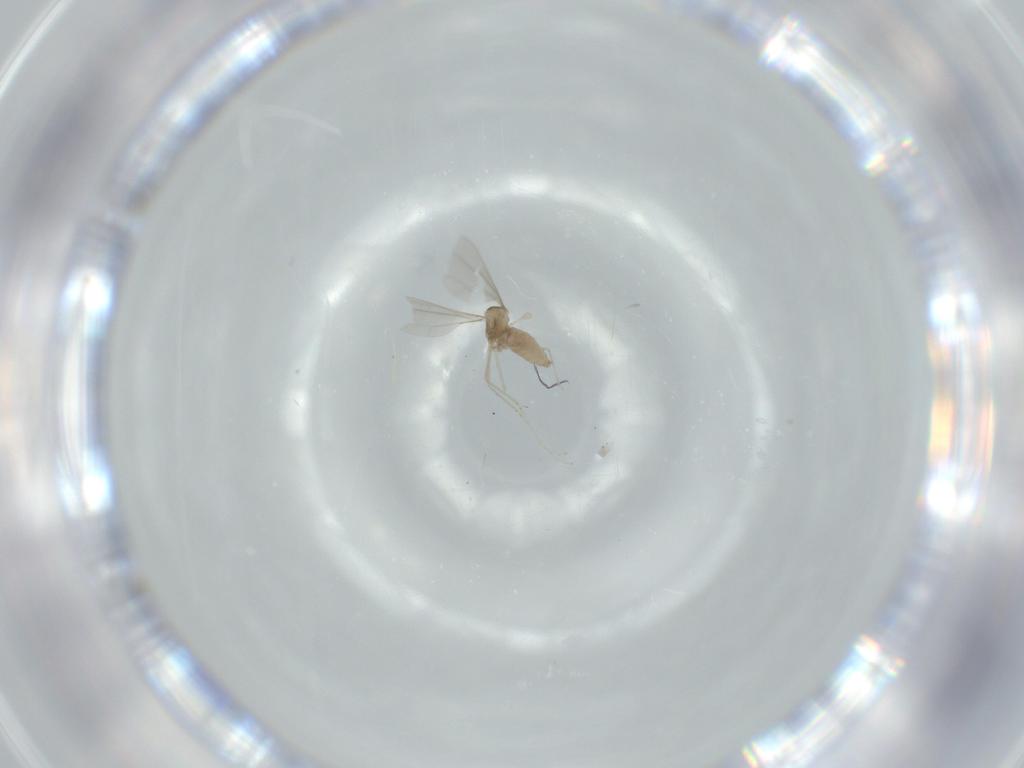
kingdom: Animalia
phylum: Arthropoda
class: Insecta
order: Diptera
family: Cecidomyiidae
